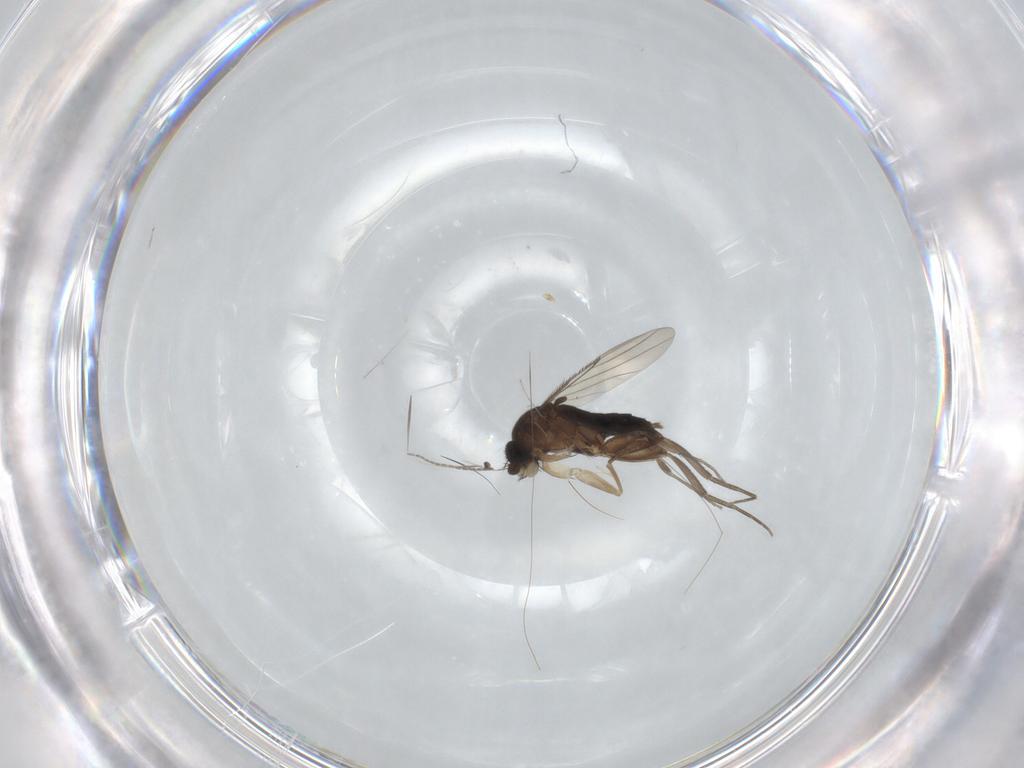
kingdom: Animalia
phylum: Arthropoda
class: Insecta
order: Diptera
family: Phoridae
